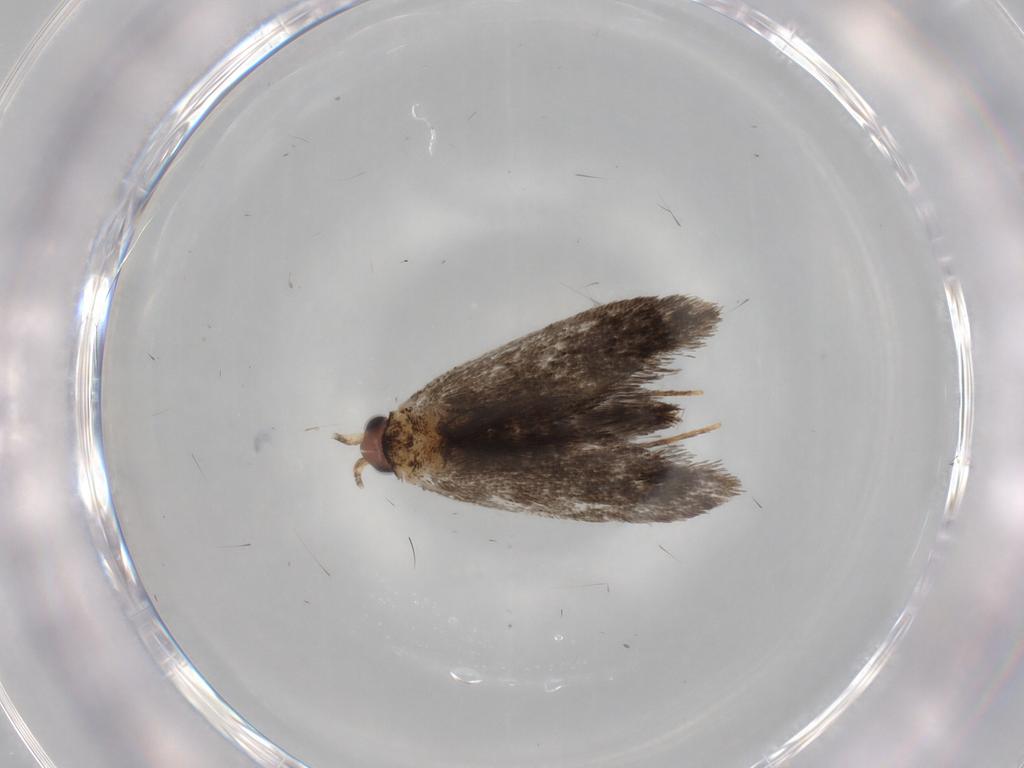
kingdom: Animalia
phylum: Arthropoda
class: Insecta
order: Lepidoptera
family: Nepticulidae
